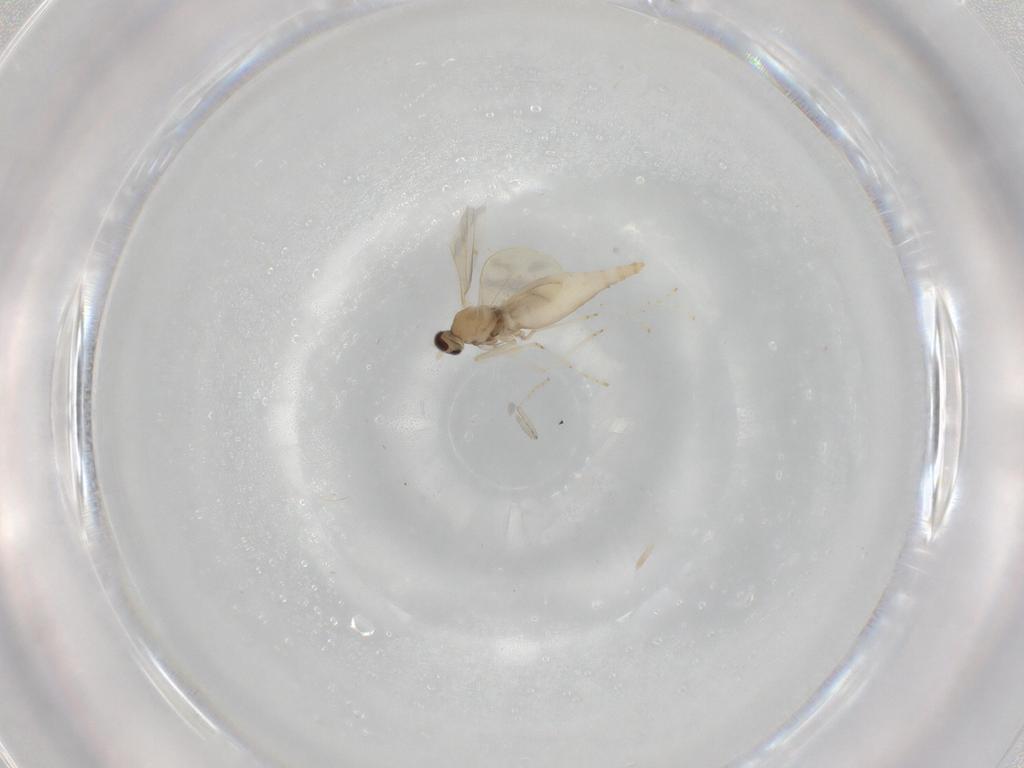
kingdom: Animalia
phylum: Arthropoda
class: Insecta
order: Diptera
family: Cecidomyiidae
